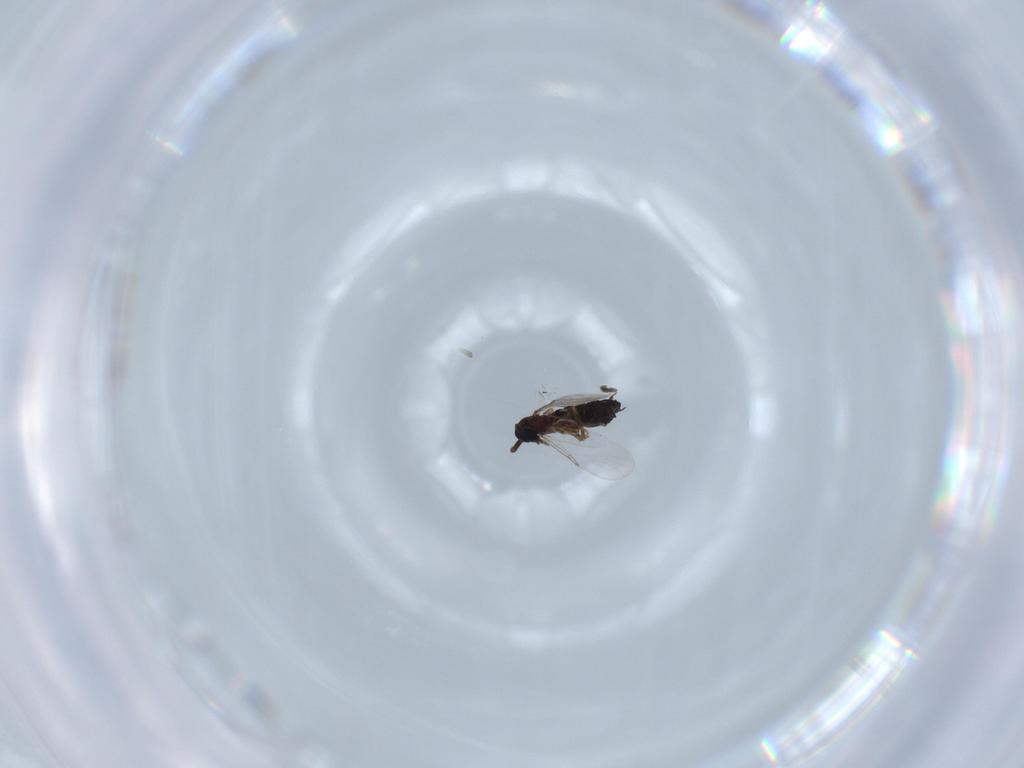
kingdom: Animalia
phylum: Arthropoda
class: Insecta
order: Diptera
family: Scatopsidae
